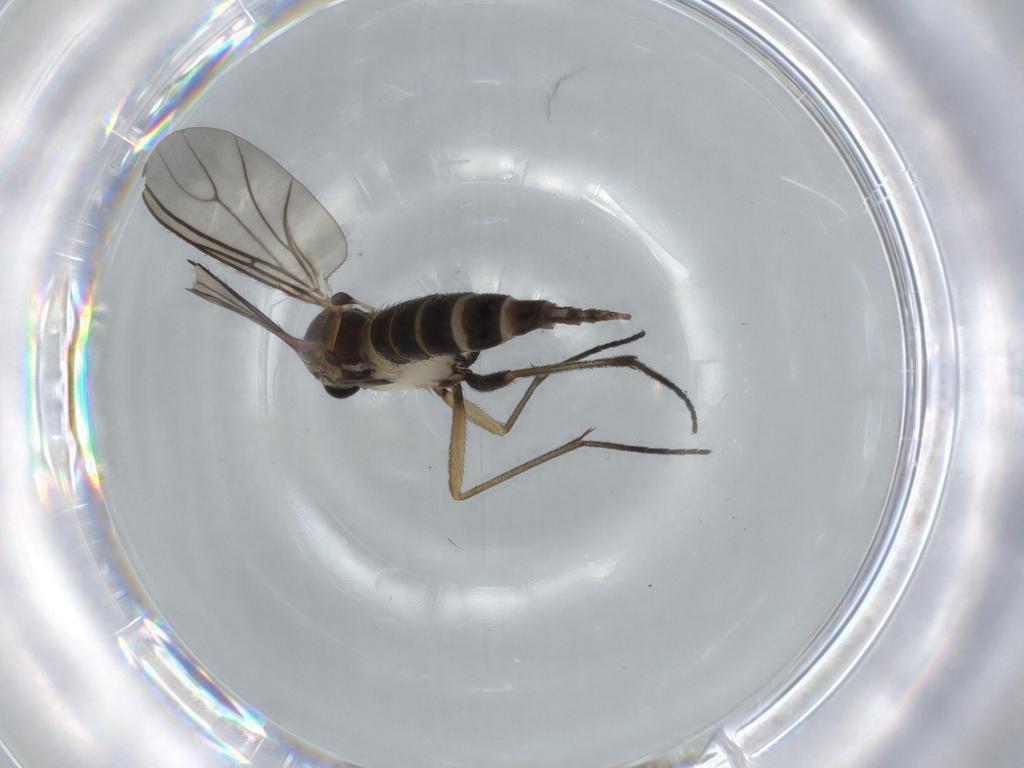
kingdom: Animalia
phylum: Arthropoda
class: Insecta
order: Diptera
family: Sciaridae
